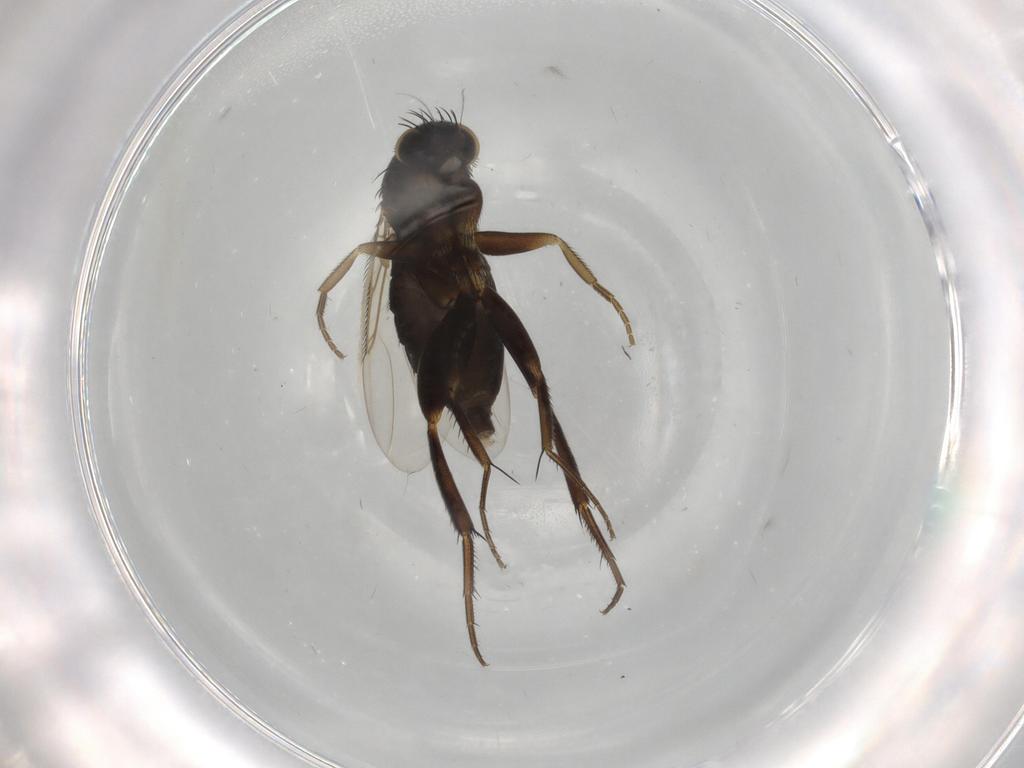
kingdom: Animalia
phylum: Arthropoda
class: Insecta
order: Diptera
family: Phoridae
